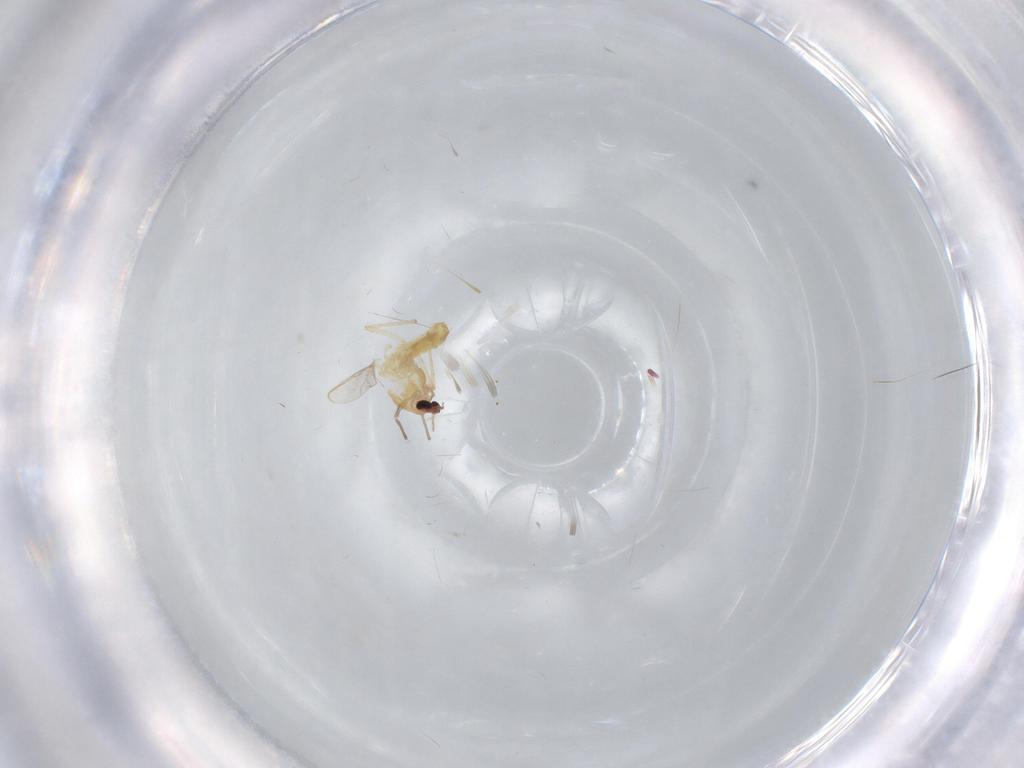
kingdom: Animalia
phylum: Arthropoda
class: Insecta
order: Diptera
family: Chironomidae
